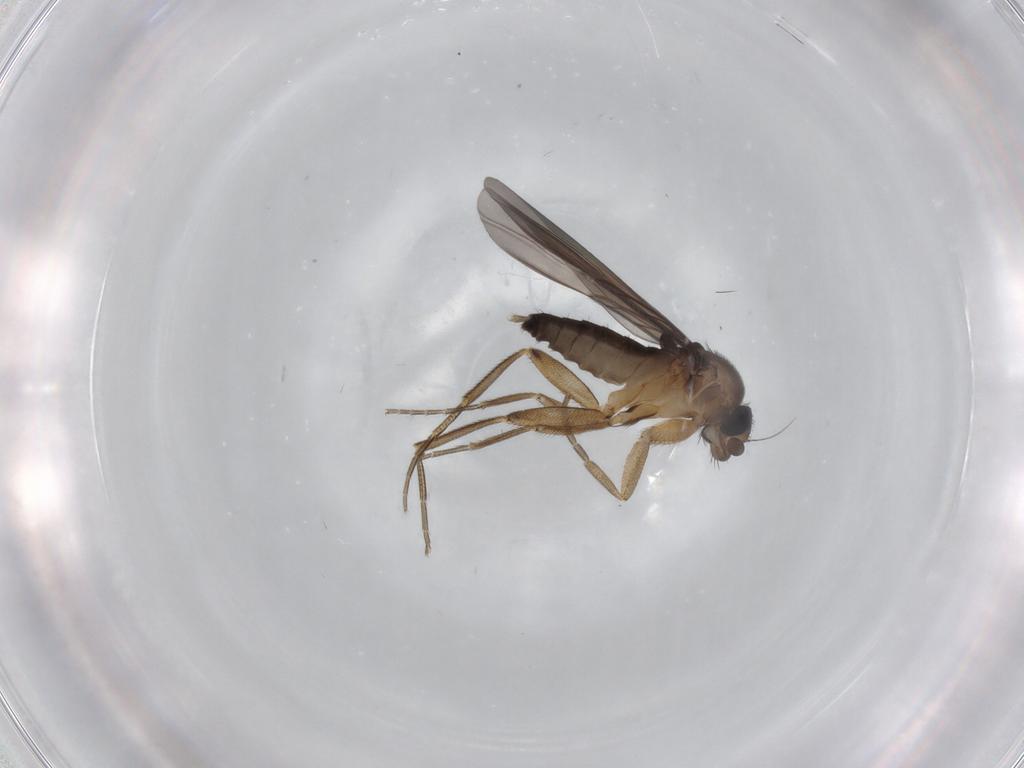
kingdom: Animalia
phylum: Arthropoda
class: Insecta
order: Diptera
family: Phoridae
